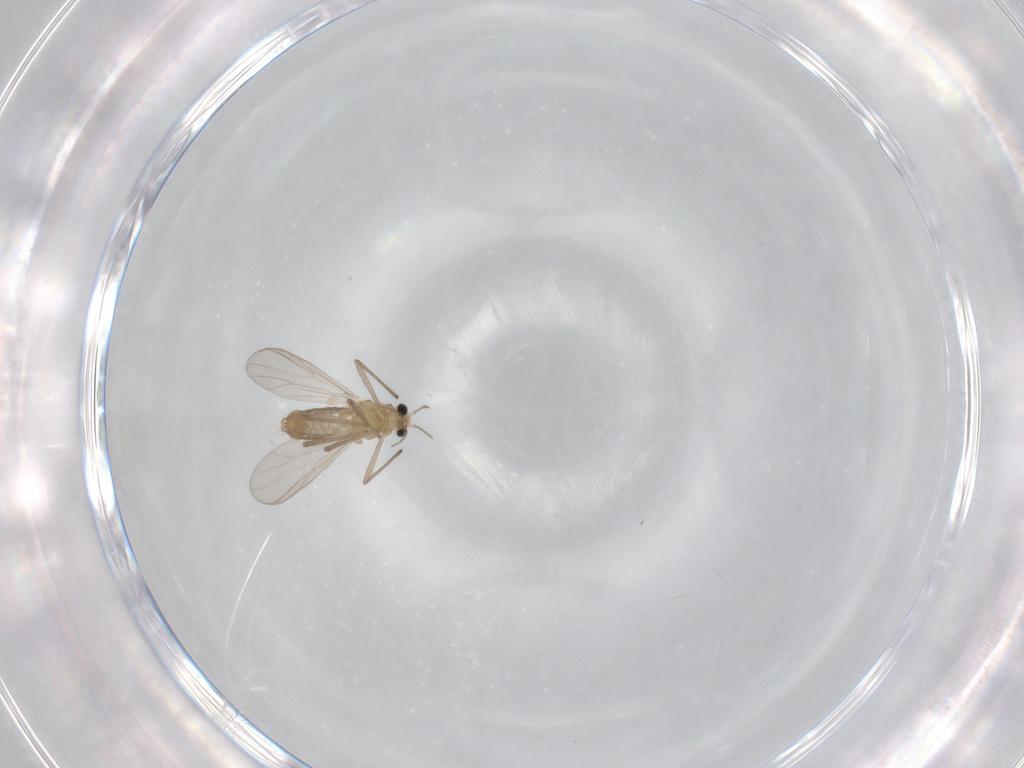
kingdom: Animalia
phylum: Arthropoda
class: Insecta
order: Diptera
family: Chironomidae
